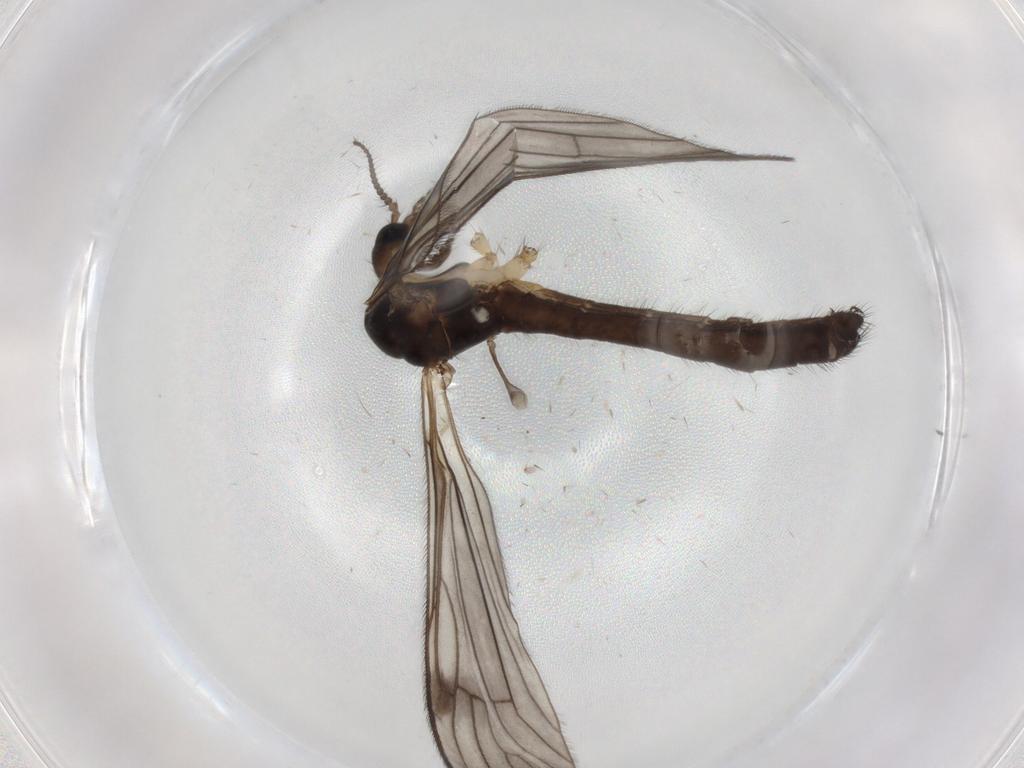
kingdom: Animalia
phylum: Arthropoda
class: Insecta
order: Diptera
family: Limoniidae
